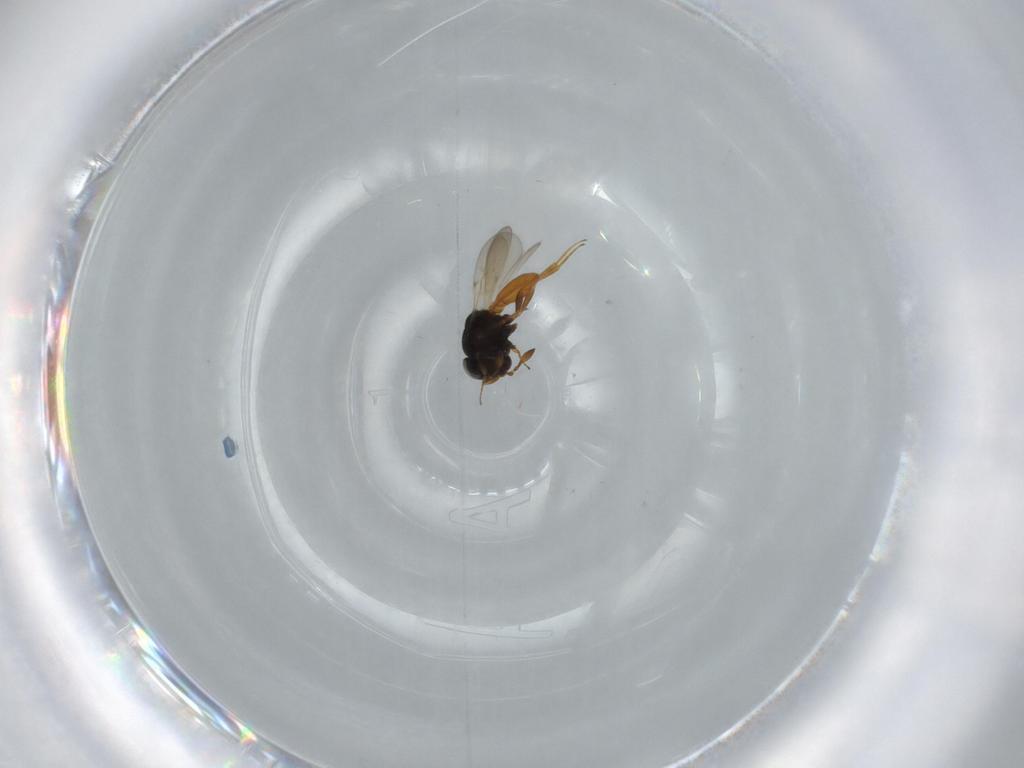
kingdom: Animalia
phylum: Arthropoda
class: Insecta
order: Hymenoptera
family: Scelionidae
